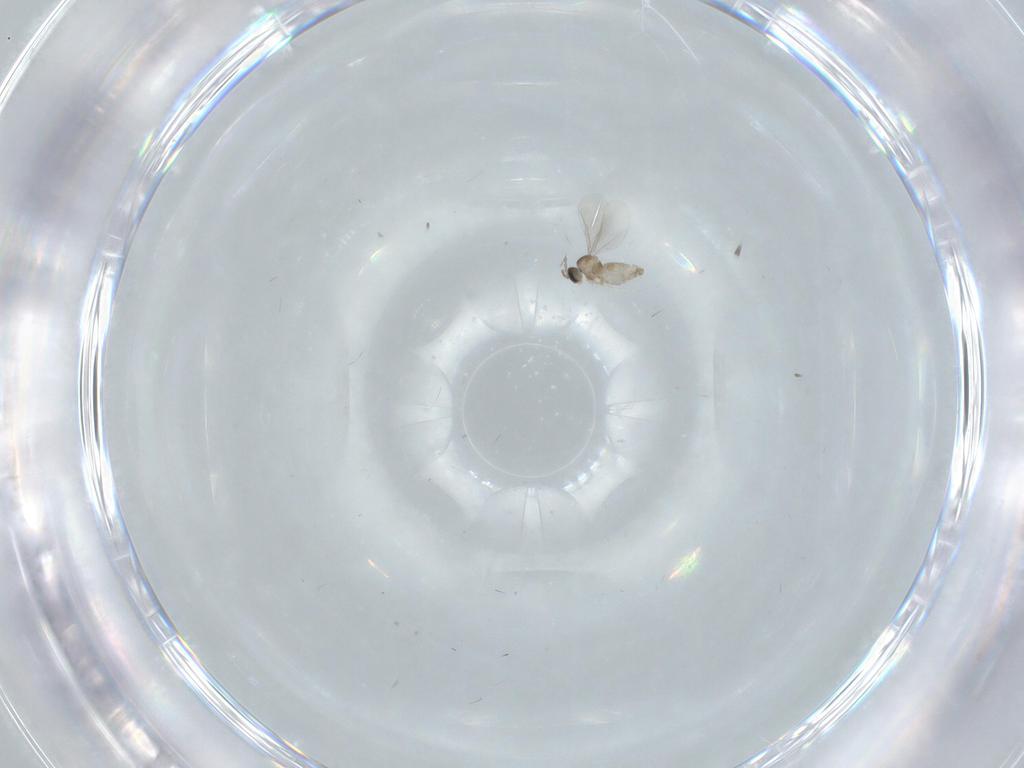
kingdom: Animalia
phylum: Arthropoda
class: Insecta
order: Diptera
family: Cecidomyiidae
